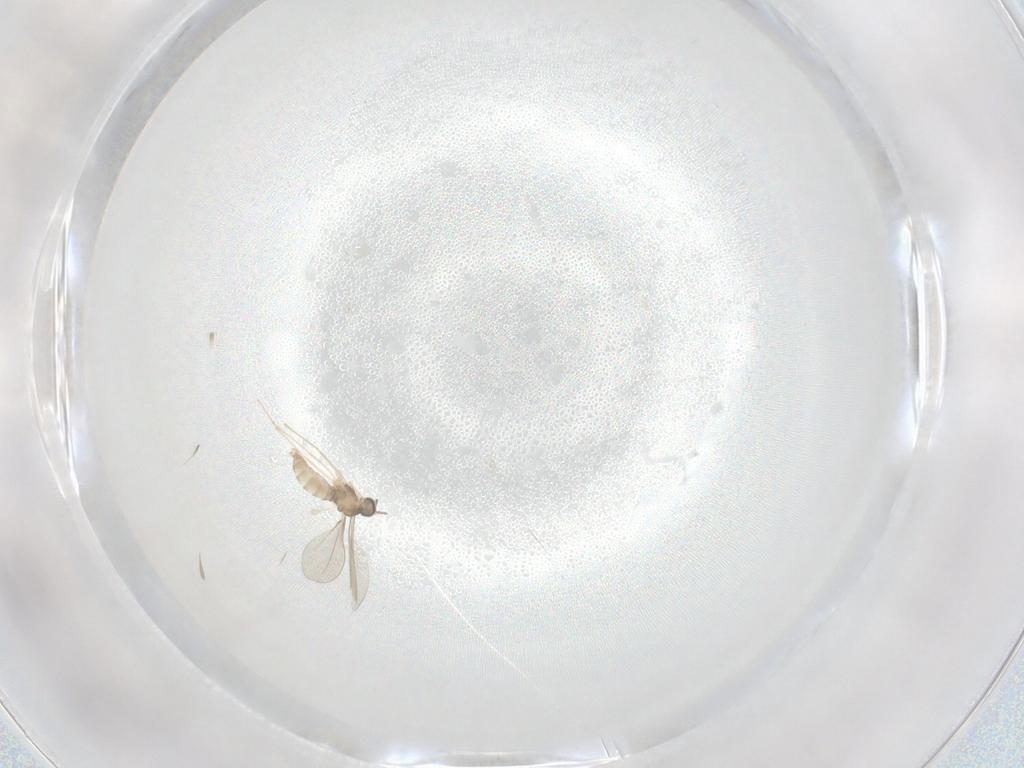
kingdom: Animalia
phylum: Arthropoda
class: Insecta
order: Diptera
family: Cecidomyiidae
